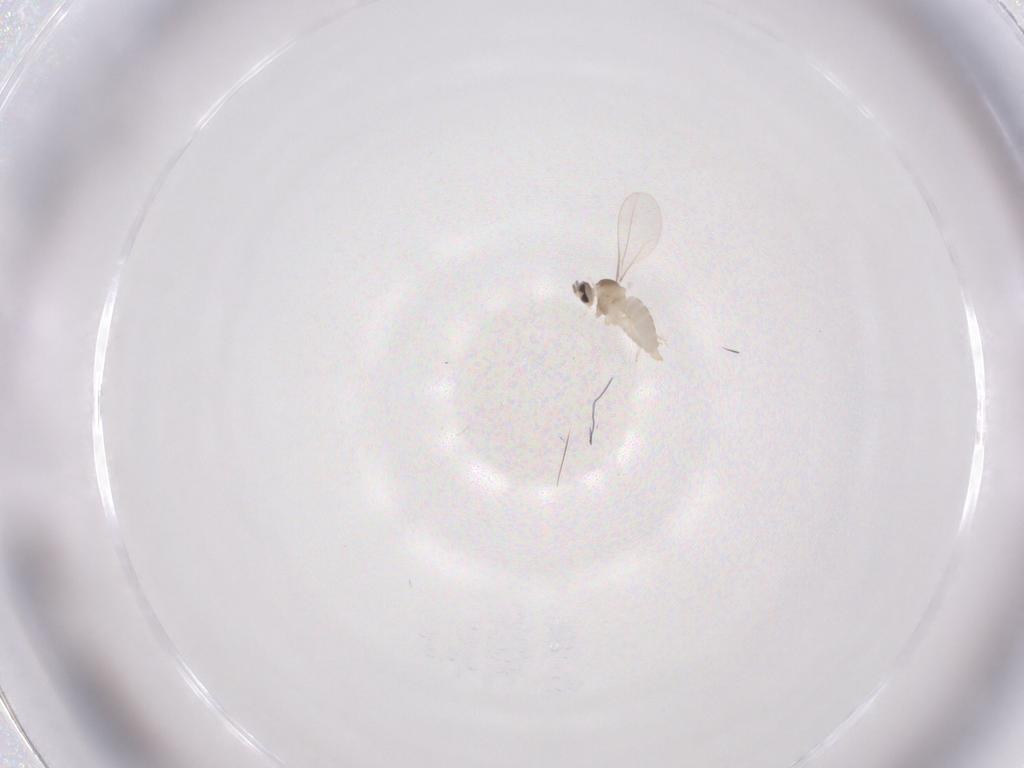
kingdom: Animalia
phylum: Arthropoda
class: Insecta
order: Diptera
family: Cecidomyiidae
